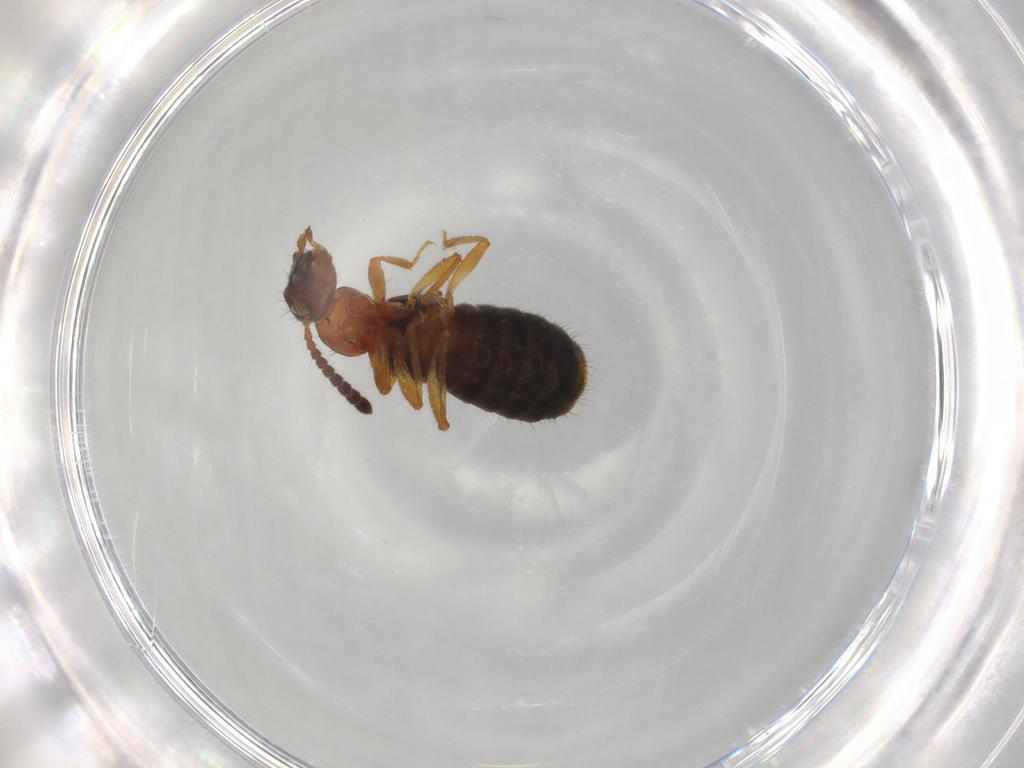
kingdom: Animalia
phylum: Arthropoda
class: Insecta
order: Coleoptera
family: Staphylinidae
